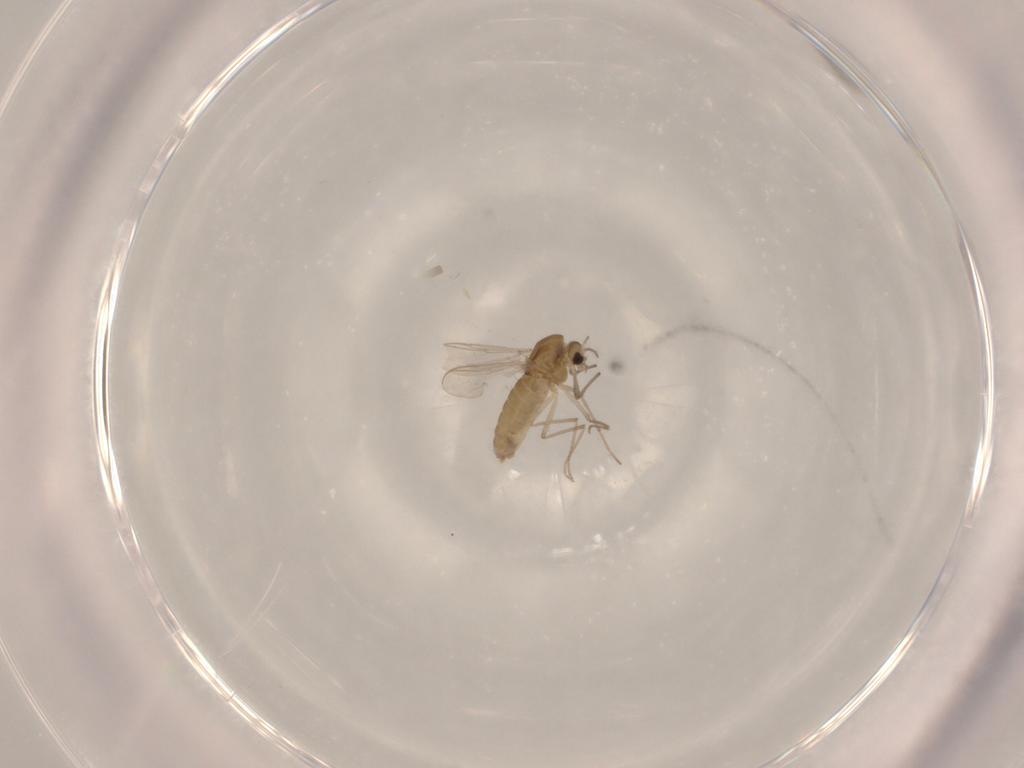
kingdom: Animalia
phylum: Arthropoda
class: Insecta
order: Diptera
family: Psychodidae
